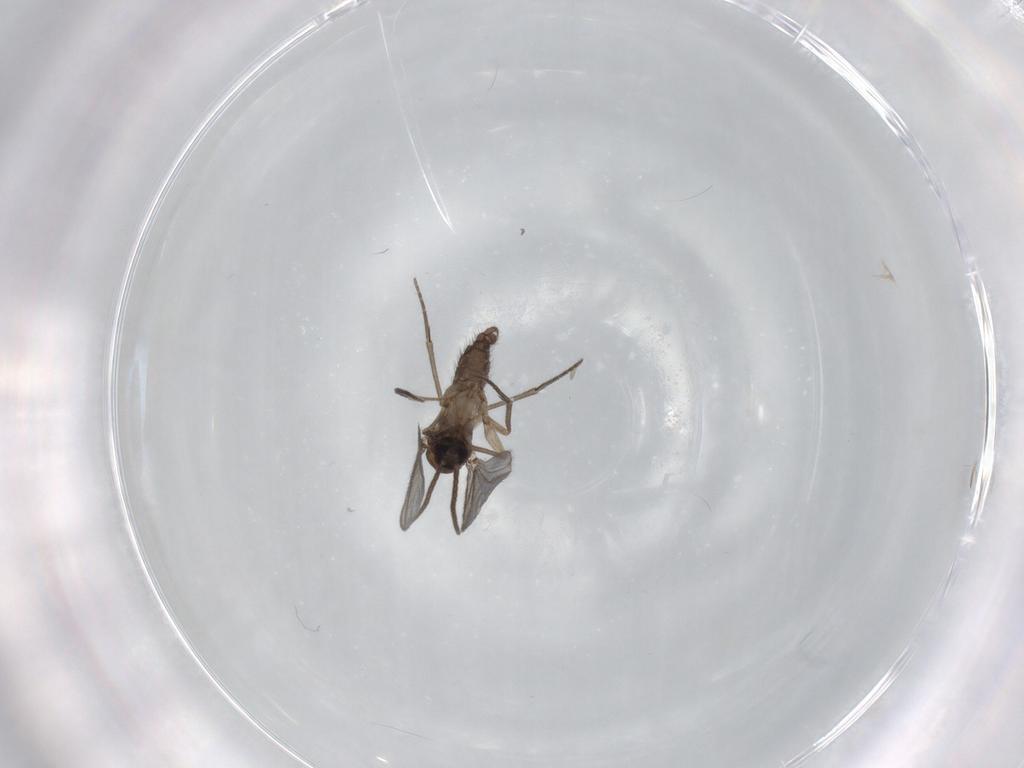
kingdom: Animalia
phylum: Arthropoda
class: Insecta
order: Diptera
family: Sciaridae
